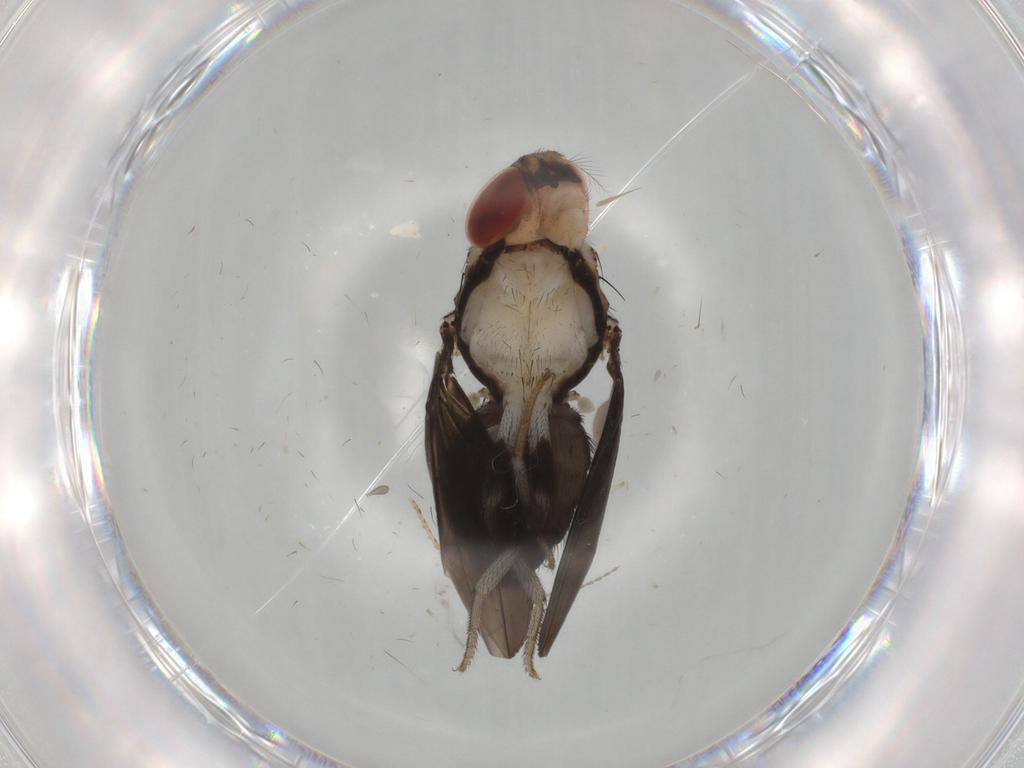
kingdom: Animalia
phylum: Arthropoda
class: Insecta
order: Diptera
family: Drosophilidae
